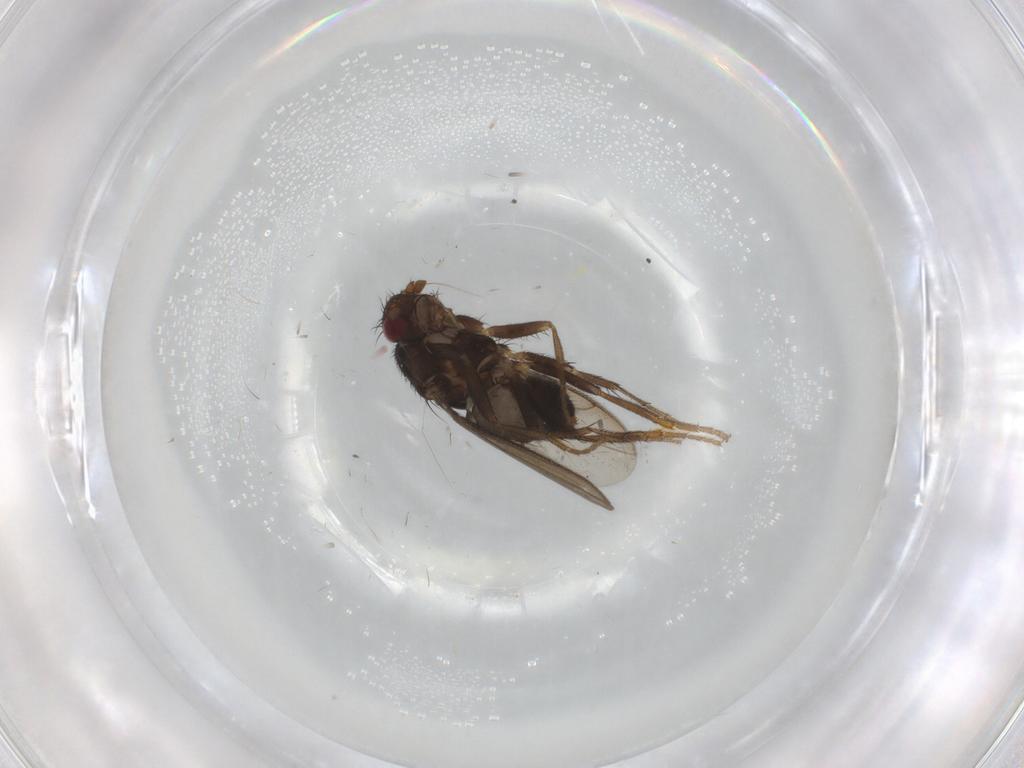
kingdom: Animalia
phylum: Arthropoda
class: Insecta
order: Diptera
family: Sphaeroceridae
